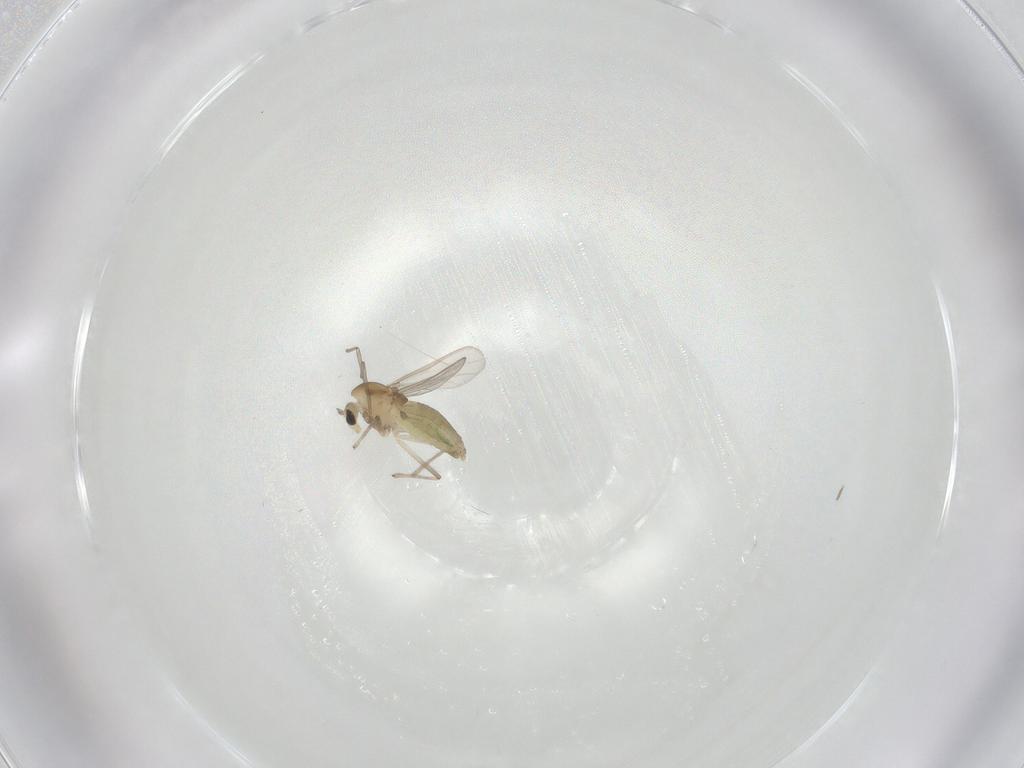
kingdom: Animalia
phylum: Arthropoda
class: Insecta
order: Diptera
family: Chironomidae
